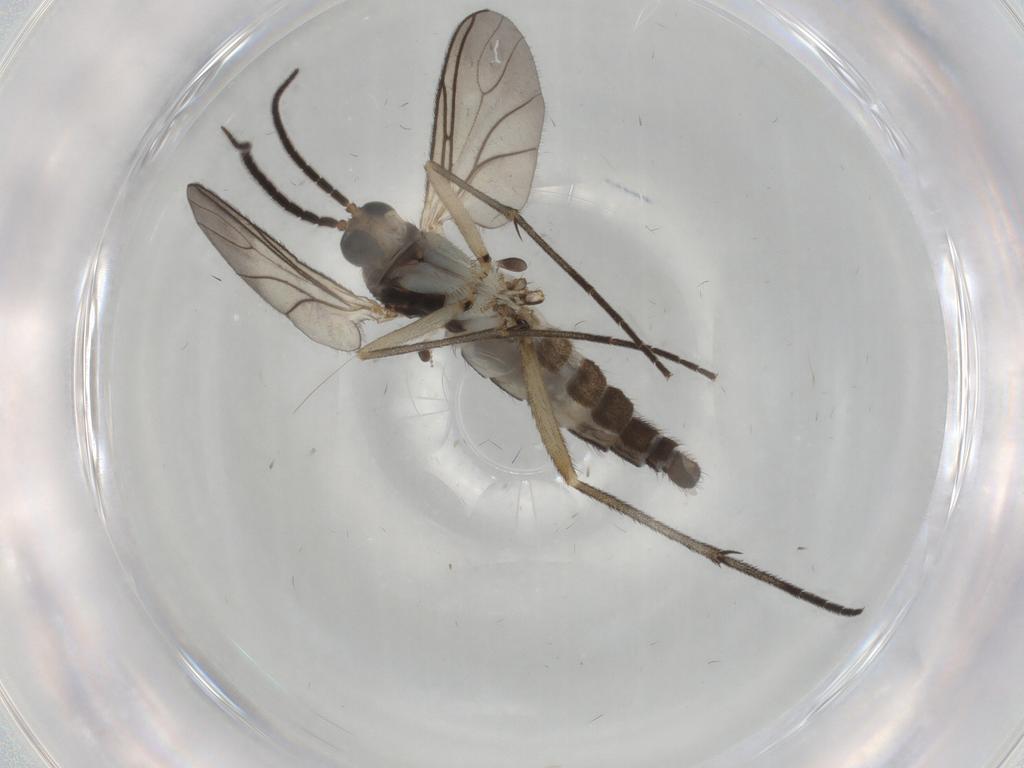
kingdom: Animalia
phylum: Arthropoda
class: Insecta
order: Diptera
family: Sciaridae
